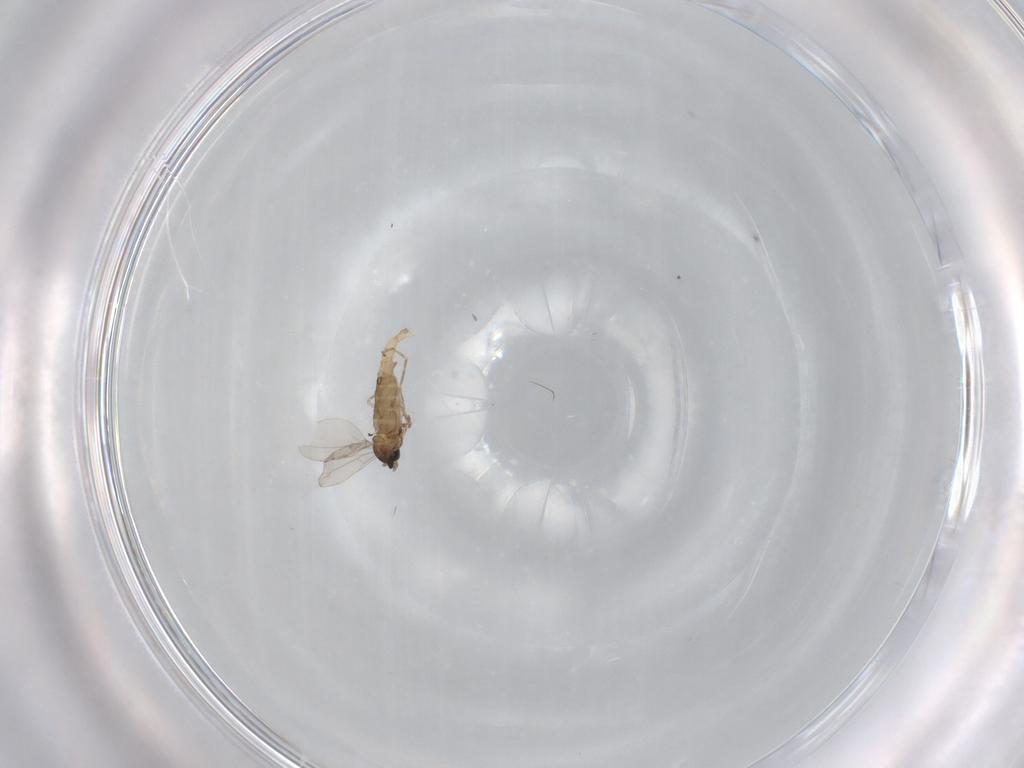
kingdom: Animalia
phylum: Arthropoda
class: Insecta
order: Diptera
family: Cecidomyiidae
